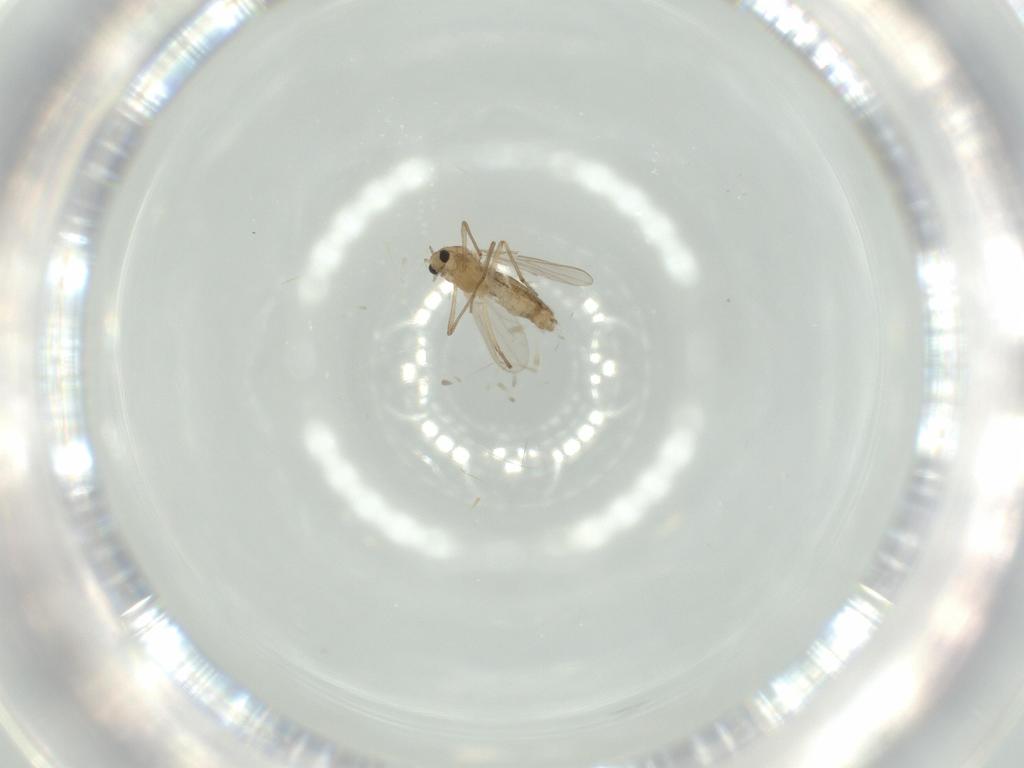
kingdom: Animalia
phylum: Arthropoda
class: Insecta
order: Diptera
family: Chironomidae
